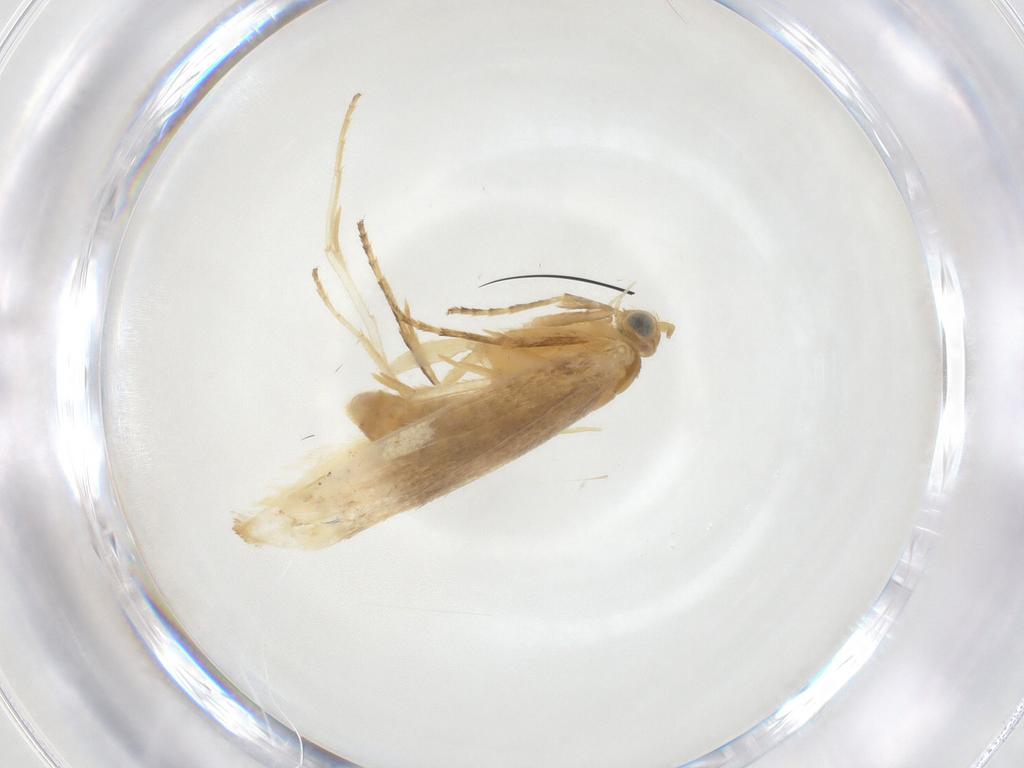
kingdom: Animalia
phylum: Arthropoda
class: Insecta
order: Lepidoptera
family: Argyresthiidae
